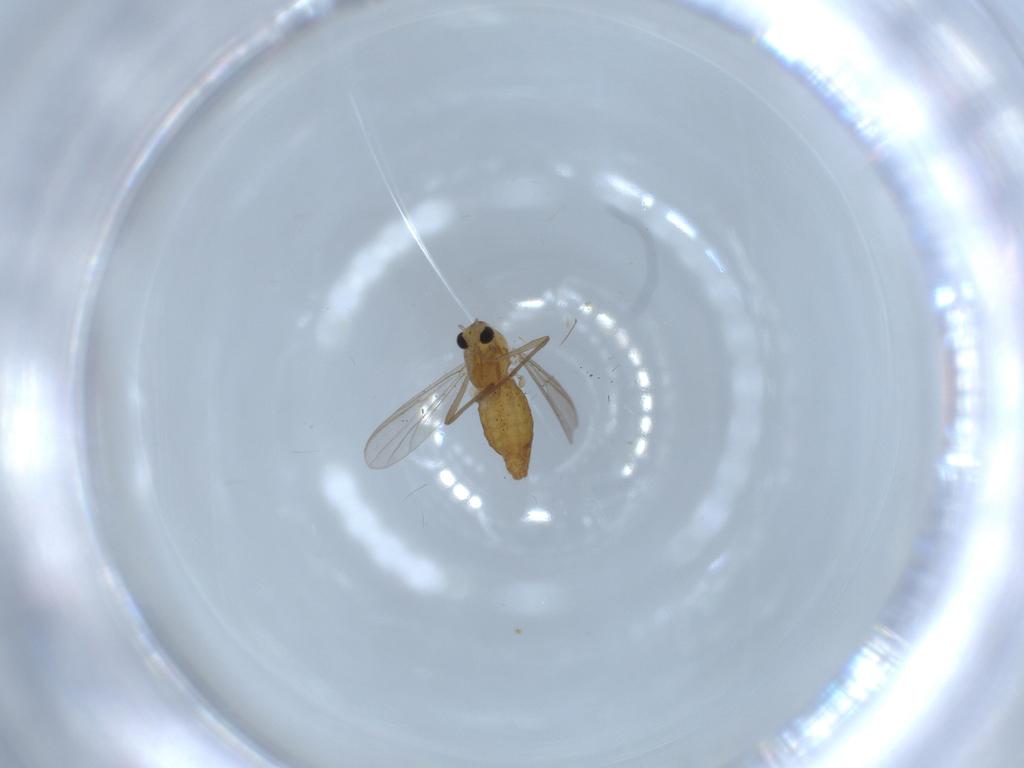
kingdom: Animalia
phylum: Arthropoda
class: Insecta
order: Diptera
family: Chironomidae
